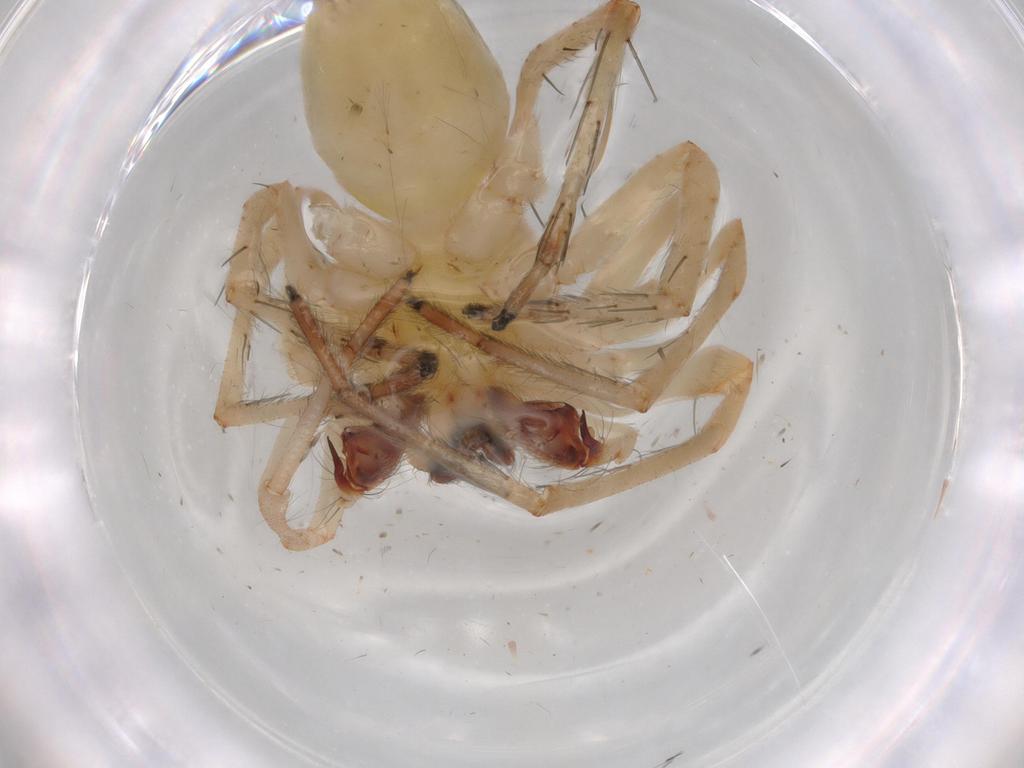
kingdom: Animalia
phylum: Arthropoda
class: Arachnida
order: Araneae
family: Anyphaenidae
